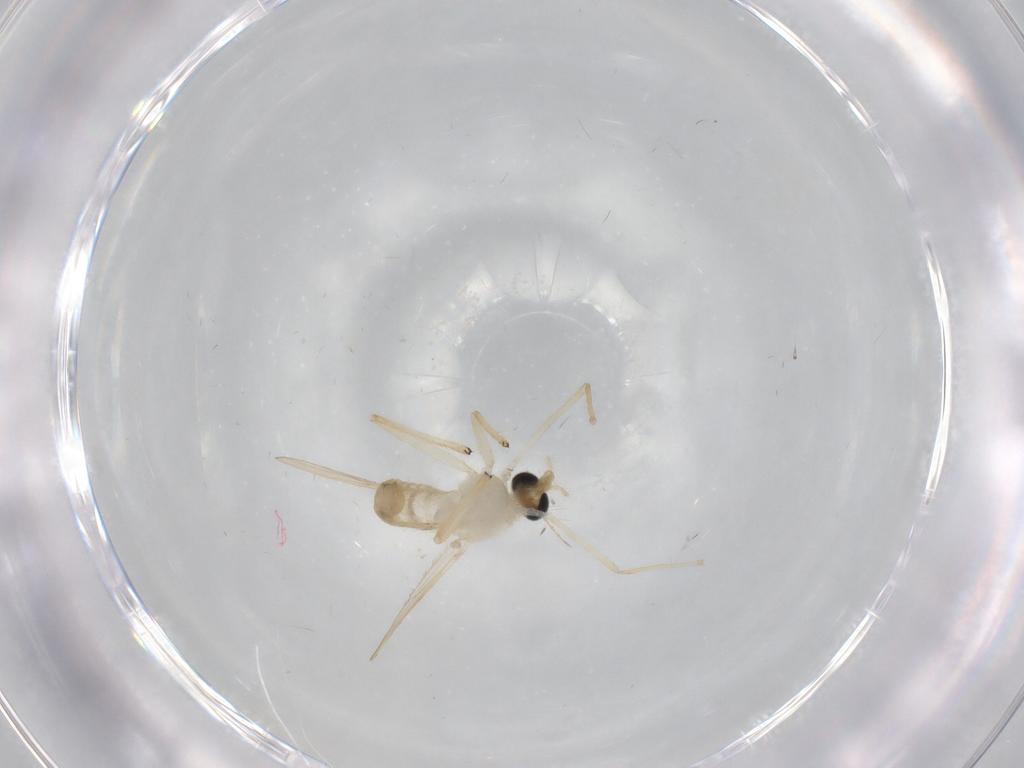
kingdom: Animalia
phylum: Arthropoda
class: Insecta
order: Diptera
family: Chironomidae
